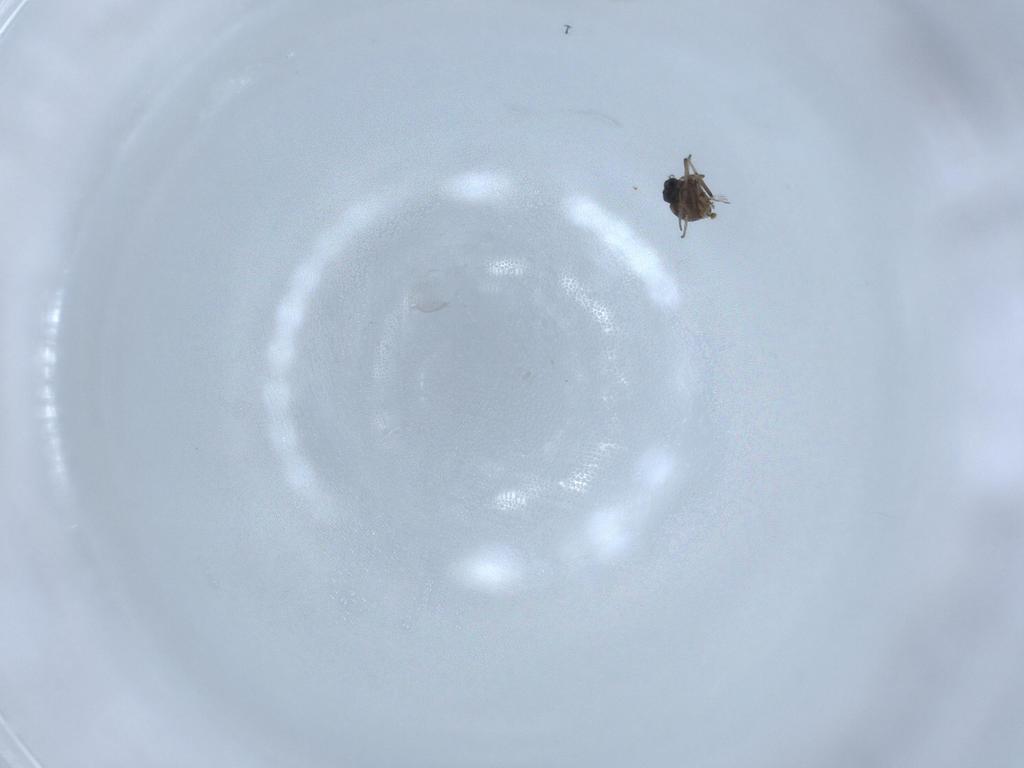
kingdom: Animalia
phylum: Arthropoda
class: Insecta
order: Diptera
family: Ceratopogonidae
